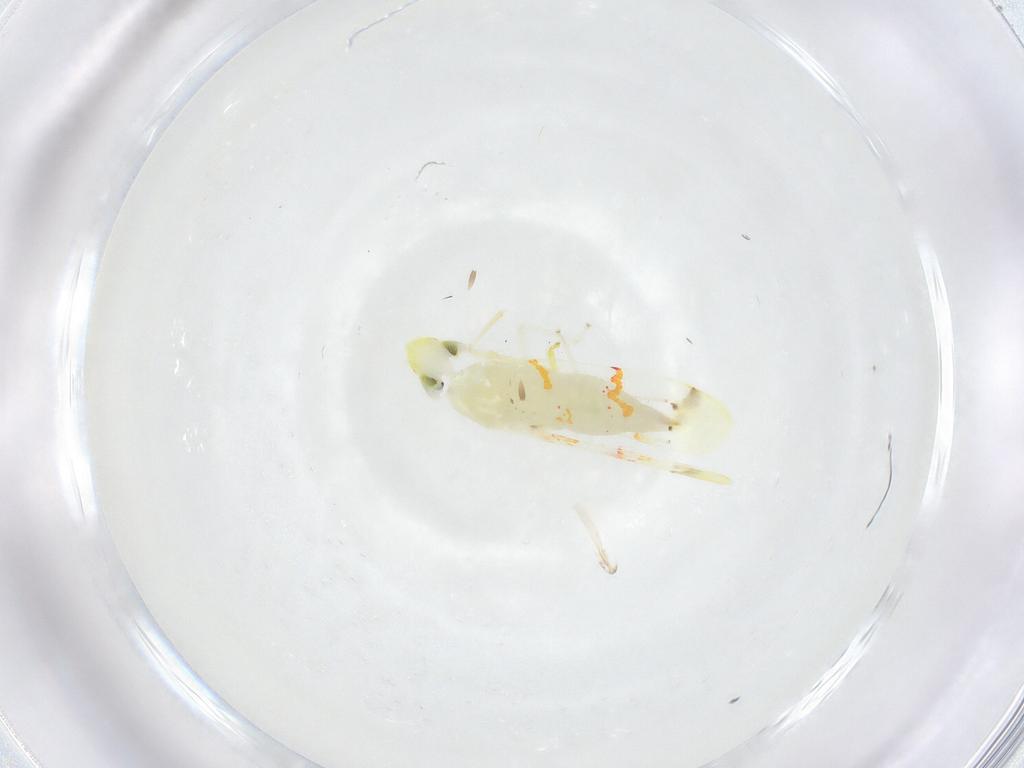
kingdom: Animalia
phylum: Arthropoda
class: Insecta
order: Hemiptera
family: Cicadellidae
